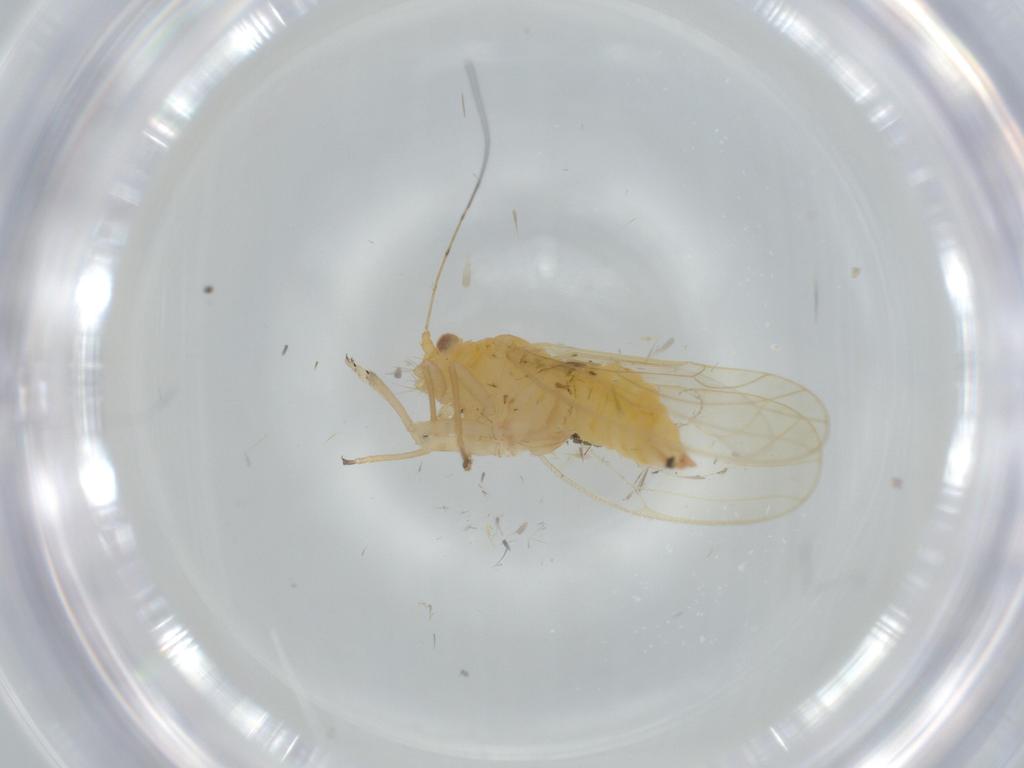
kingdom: Animalia
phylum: Arthropoda
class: Insecta
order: Hemiptera
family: Psyllidae
